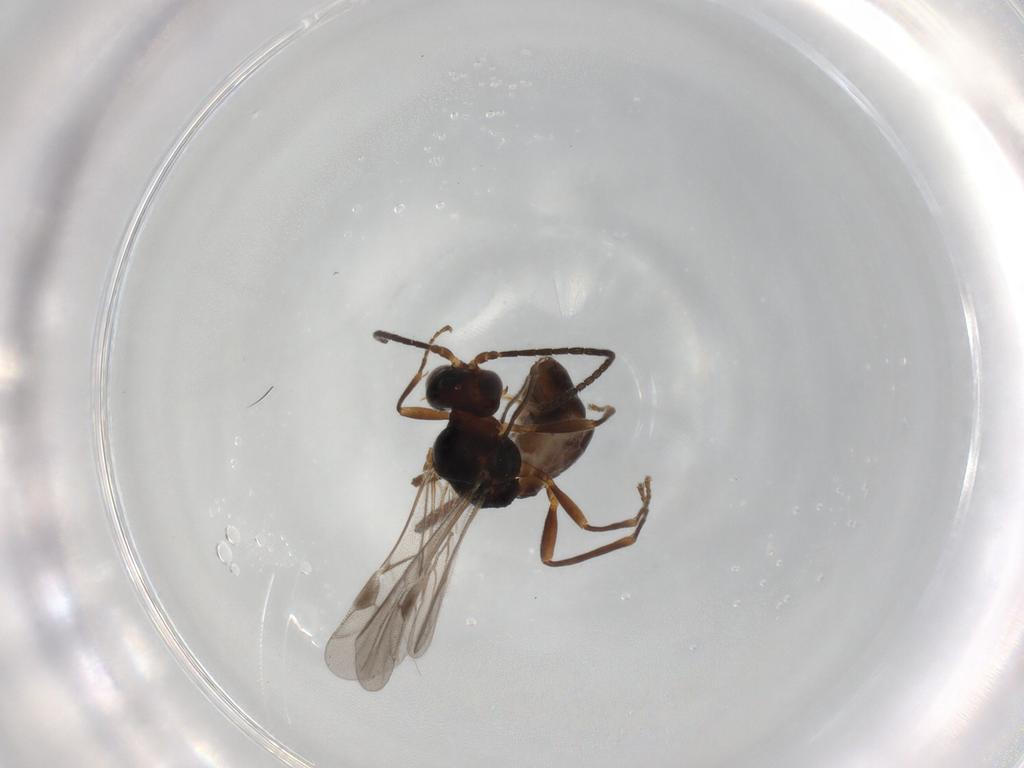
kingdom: Animalia
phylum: Arthropoda
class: Insecta
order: Hymenoptera
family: Braconidae
